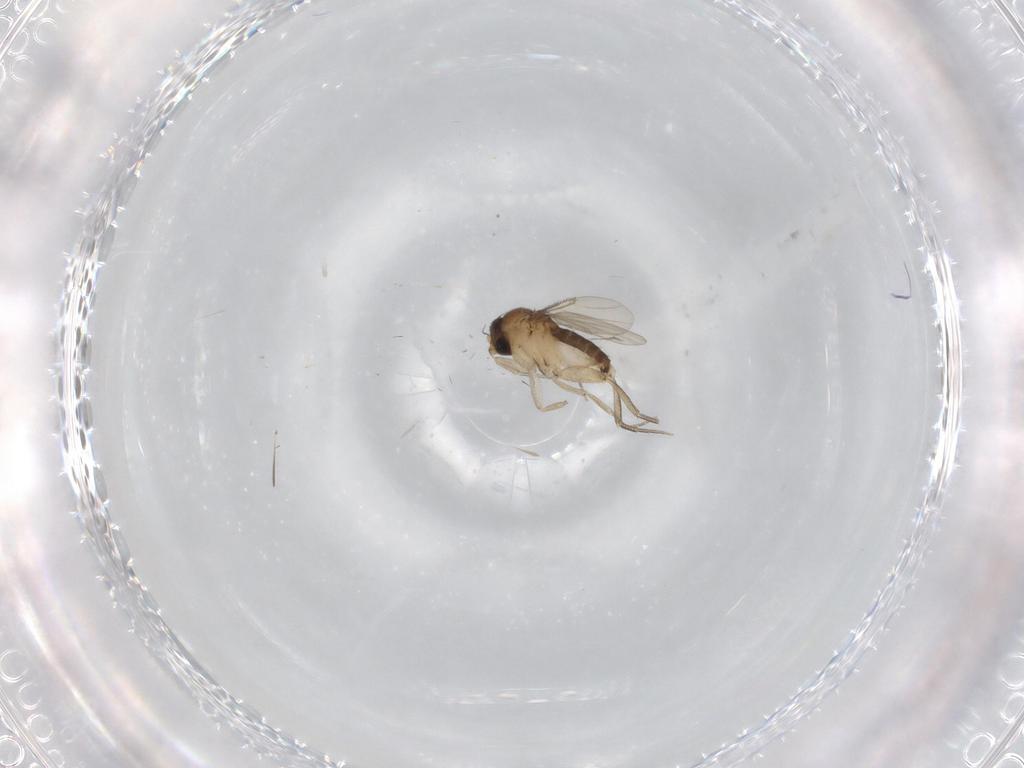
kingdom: Animalia
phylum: Arthropoda
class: Insecta
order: Diptera
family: Phoridae
